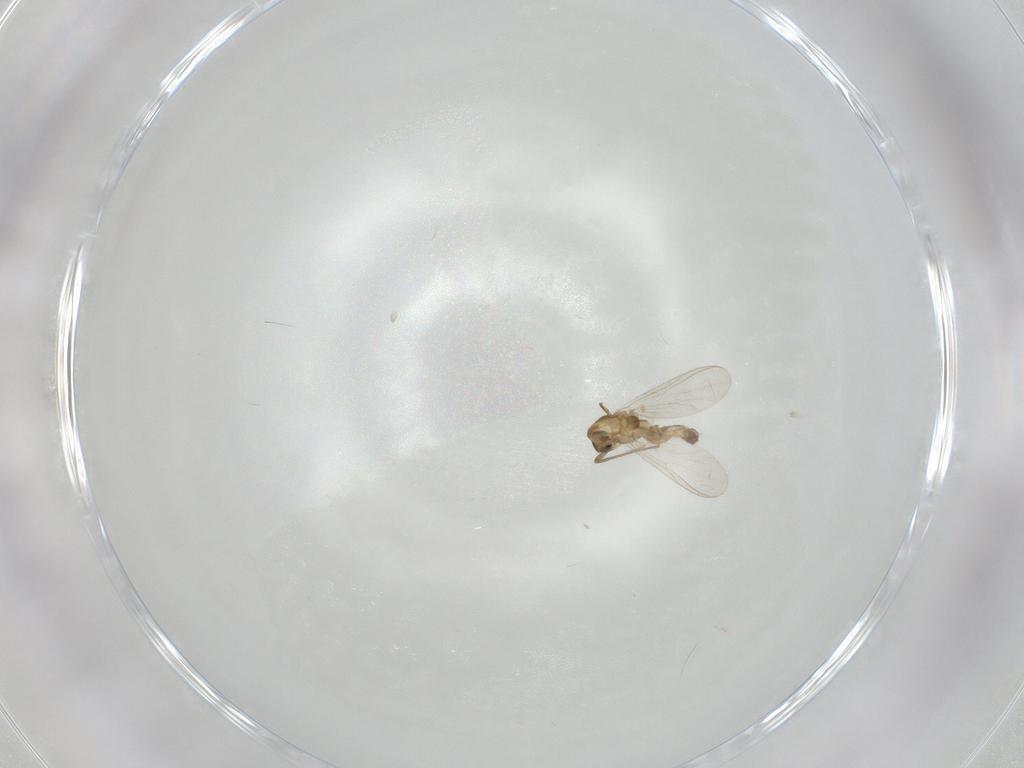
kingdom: Animalia
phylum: Arthropoda
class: Insecta
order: Diptera
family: Chironomidae
